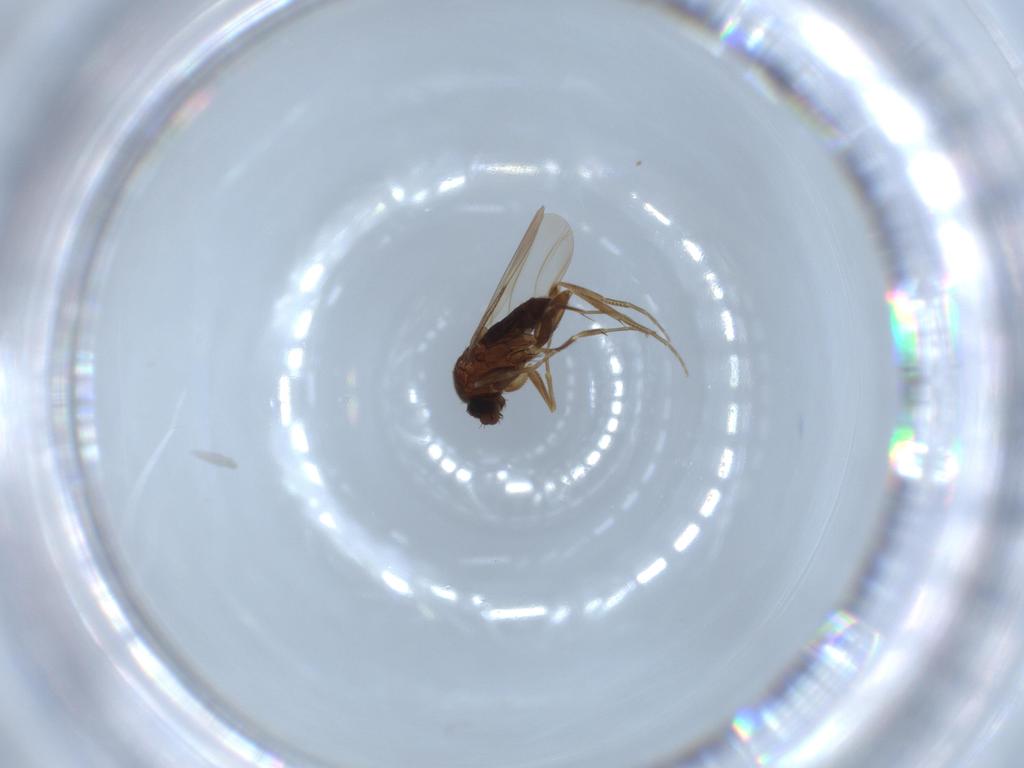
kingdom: Animalia
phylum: Arthropoda
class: Insecta
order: Diptera
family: Phoridae
